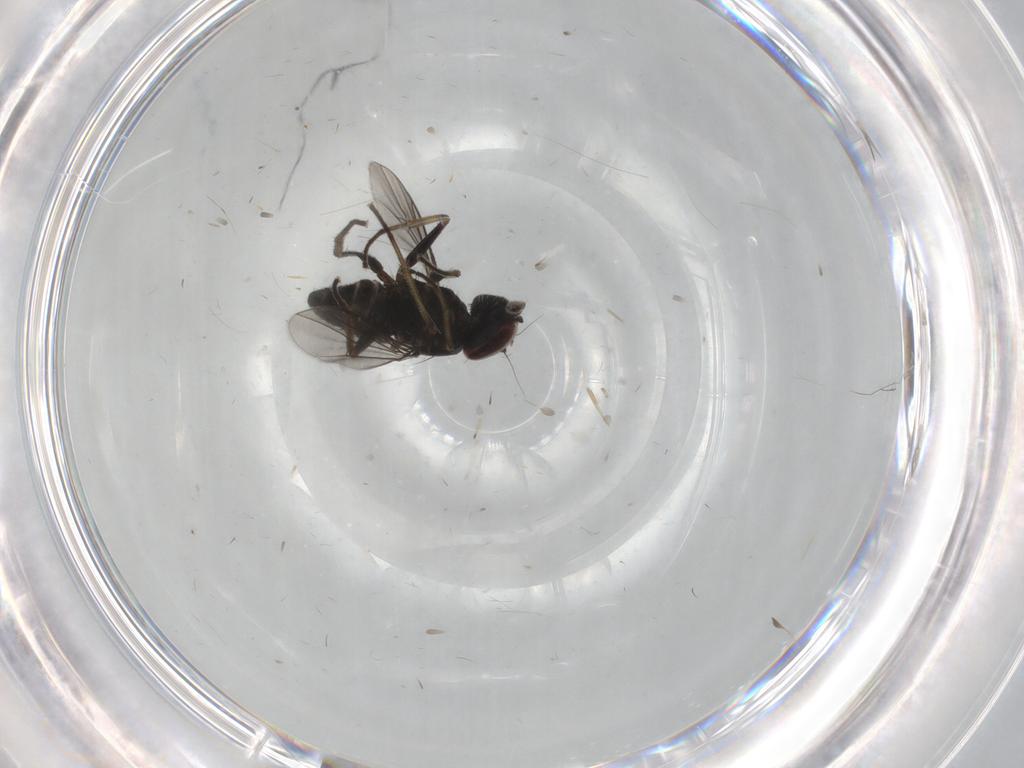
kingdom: Animalia
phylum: Arthropoda
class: Insecta
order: Diptera
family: Dolichopodidae
